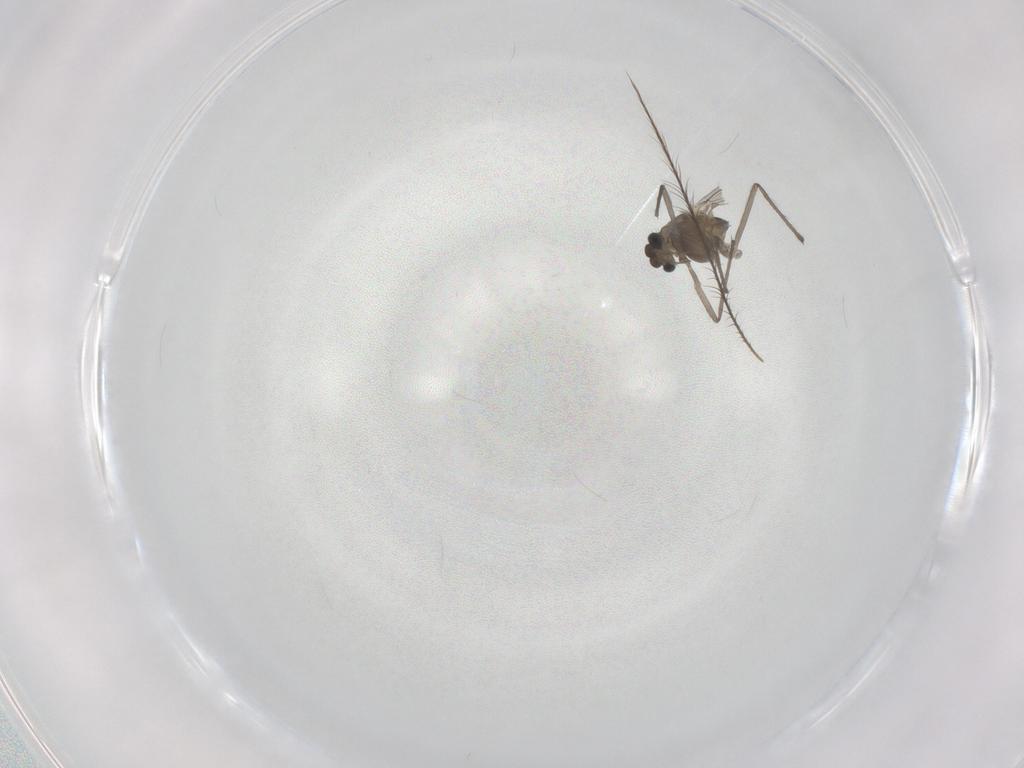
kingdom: Animalia
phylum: Arthropoda
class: Insecta
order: Diptera
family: Chironomidae
